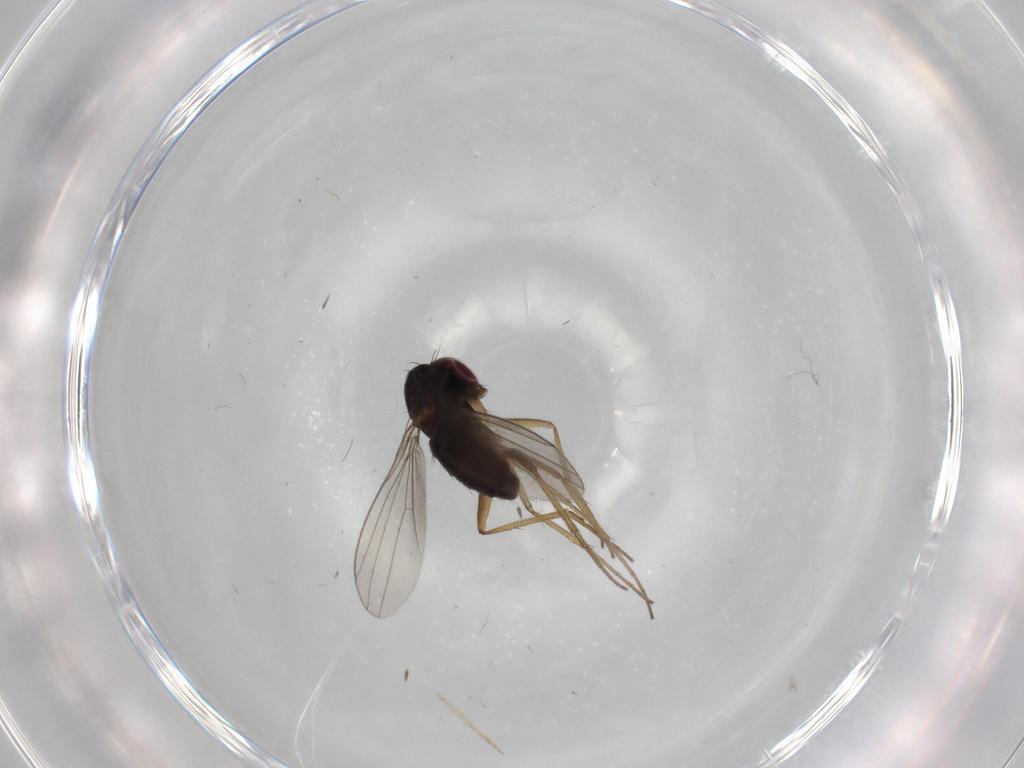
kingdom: Animalia
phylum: Arthropoda
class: Insecta
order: Diptera
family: Dolichopodidae
